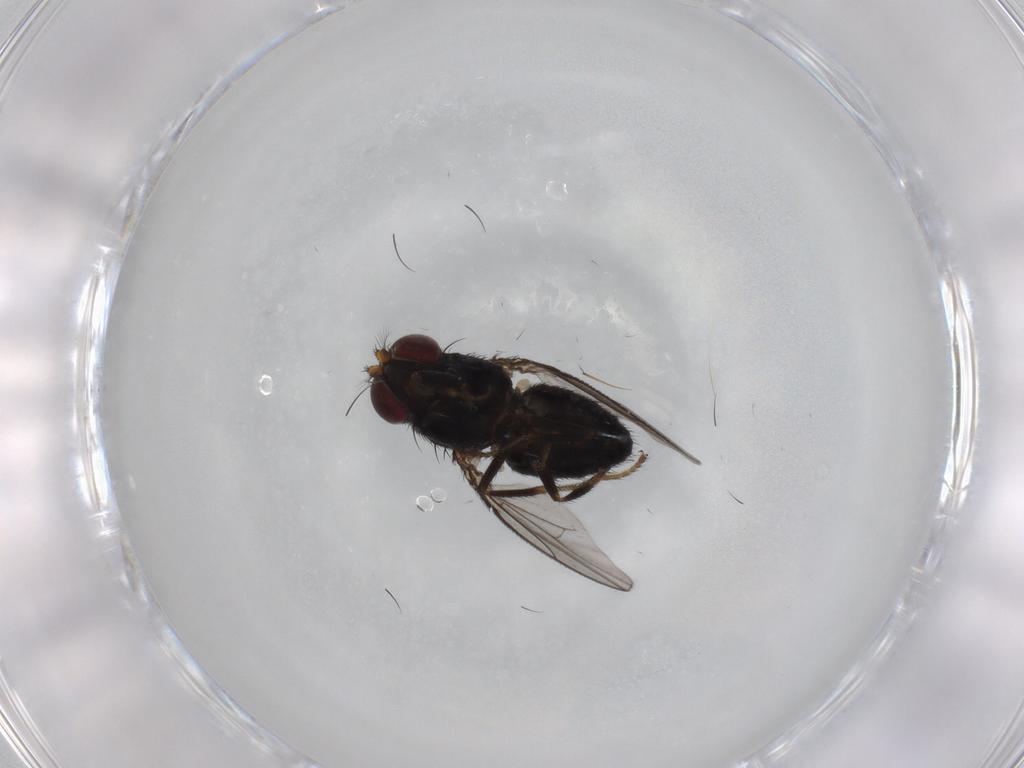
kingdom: Animalia
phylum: Arthropoda
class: Insecta
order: Diptera
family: Ephydridae
